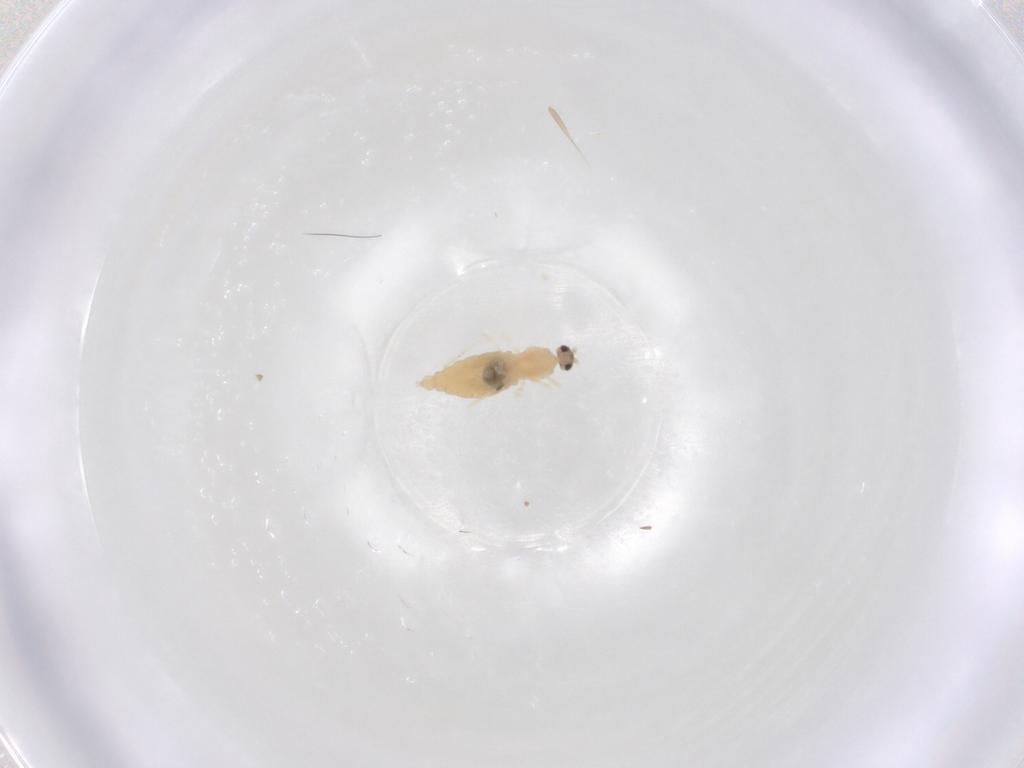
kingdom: Animalia
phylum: Arthropoda
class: Insecta
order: Diptera
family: Cecidomyiidae
